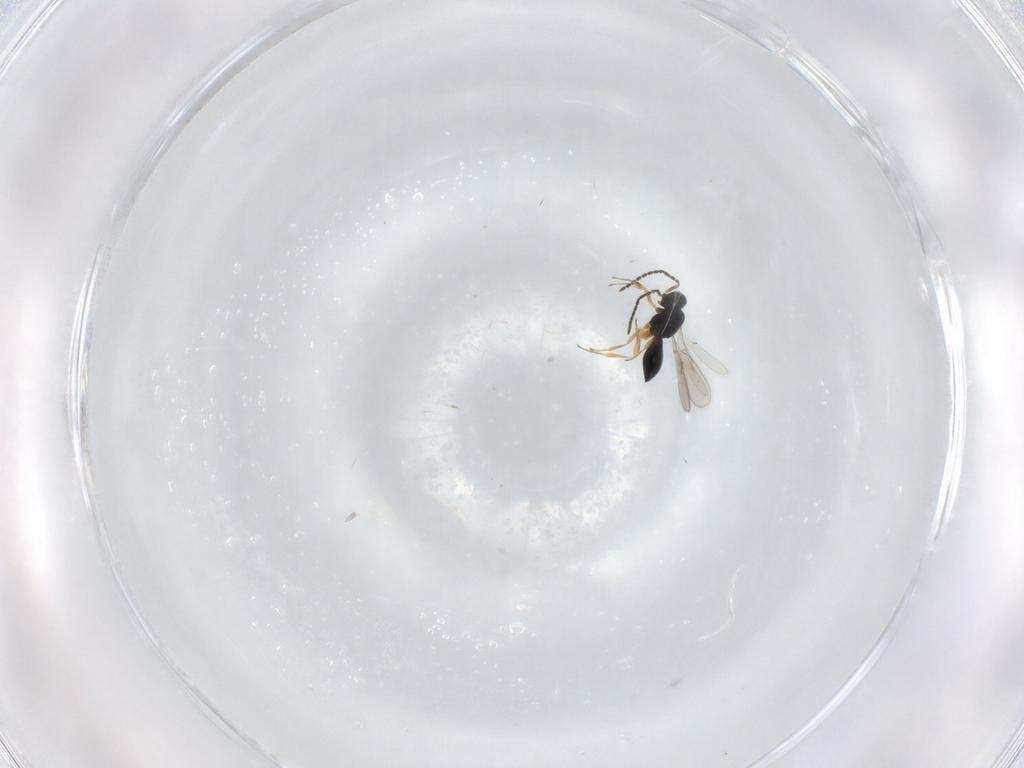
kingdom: Animalia
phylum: Arthropoda
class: Insecta
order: Hymenoptera
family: Scelionidae
